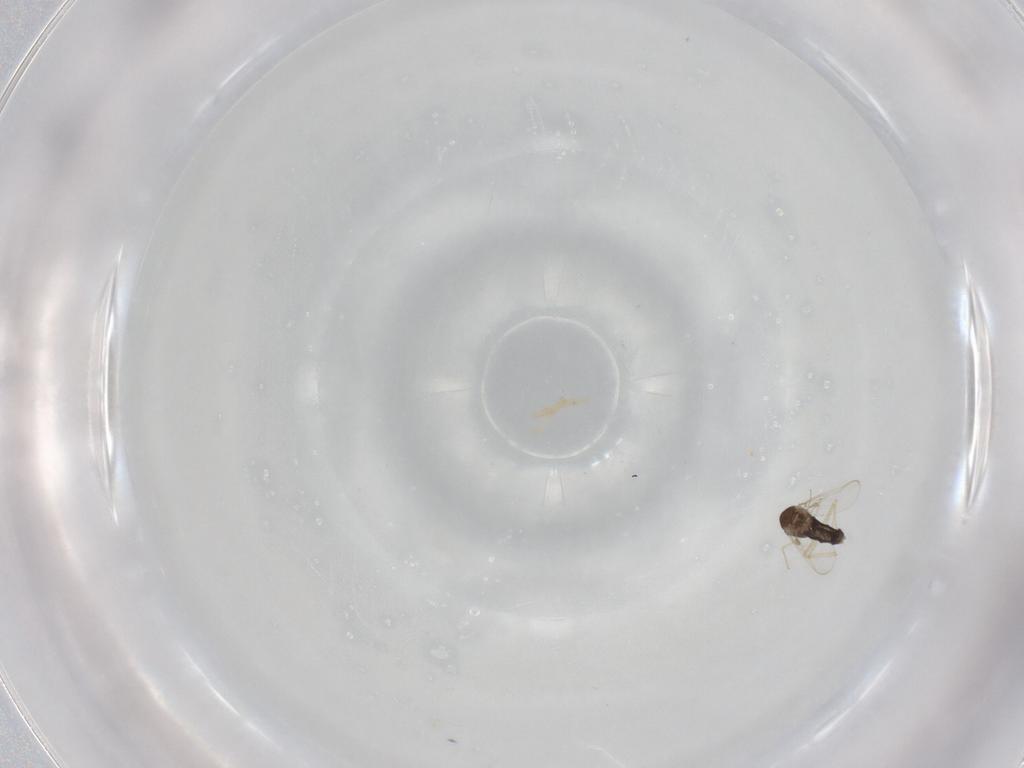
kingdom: Animalia
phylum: Arthropoda
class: Insecta
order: Diptera
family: Chironomidae
